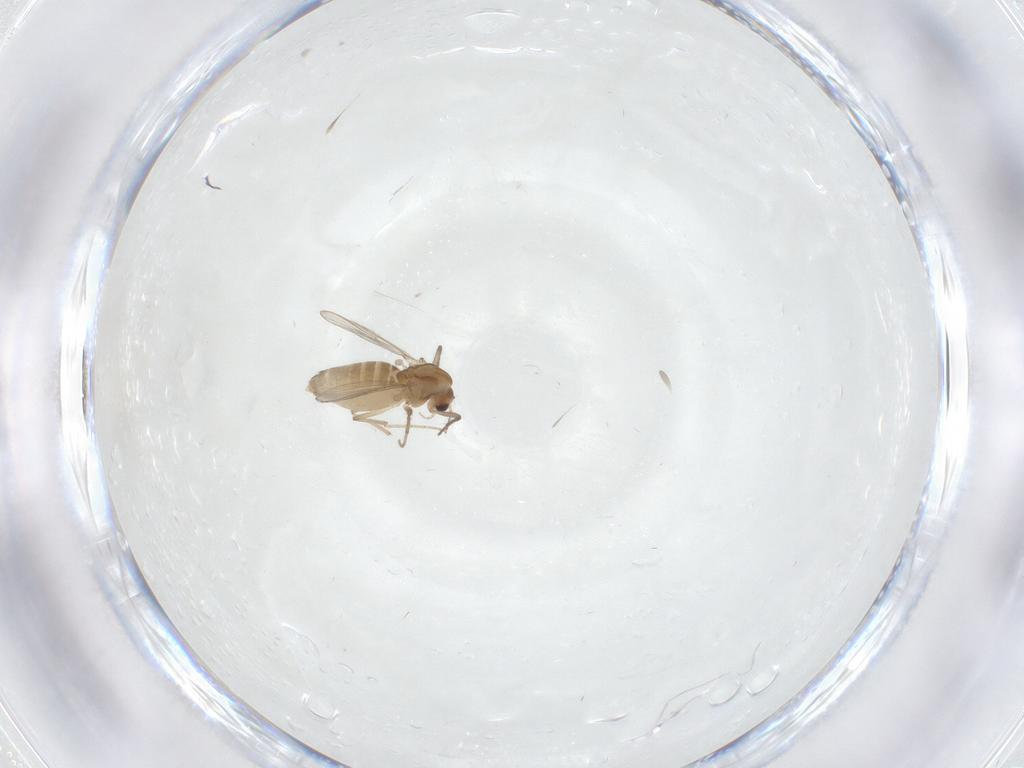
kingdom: Animalia
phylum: Arthropoda
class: Insecta
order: Diptera
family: Chironomidae
